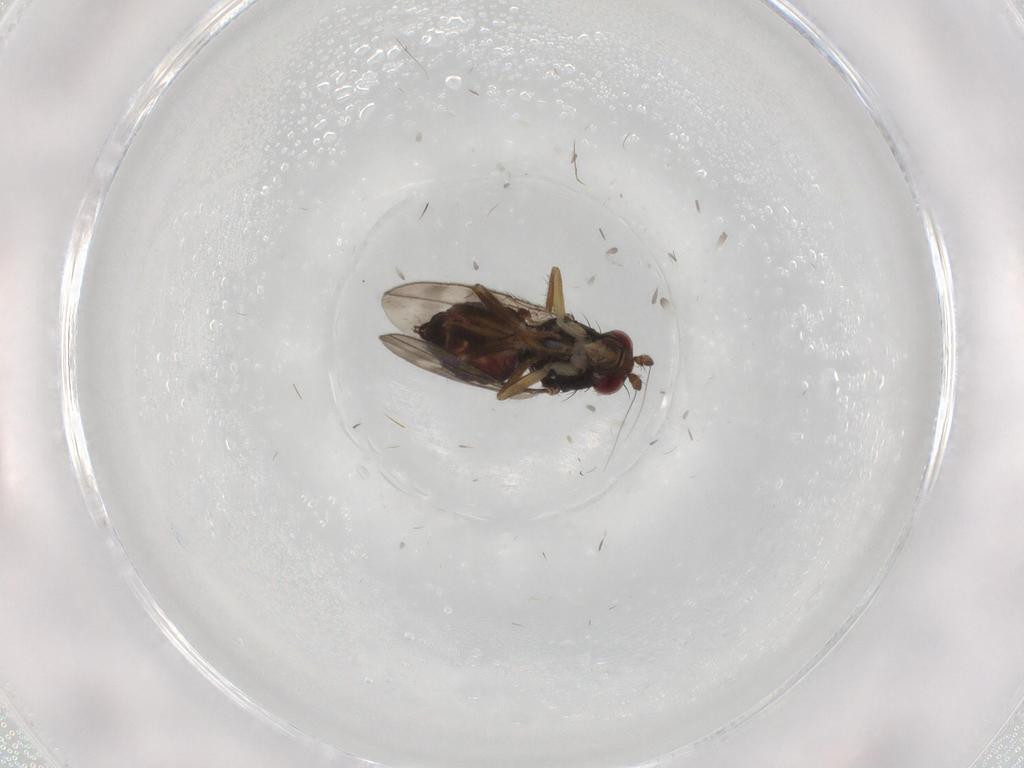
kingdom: Animalia
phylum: Arthropoda
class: Insecta
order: Diptera
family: Sphaeroceridae
